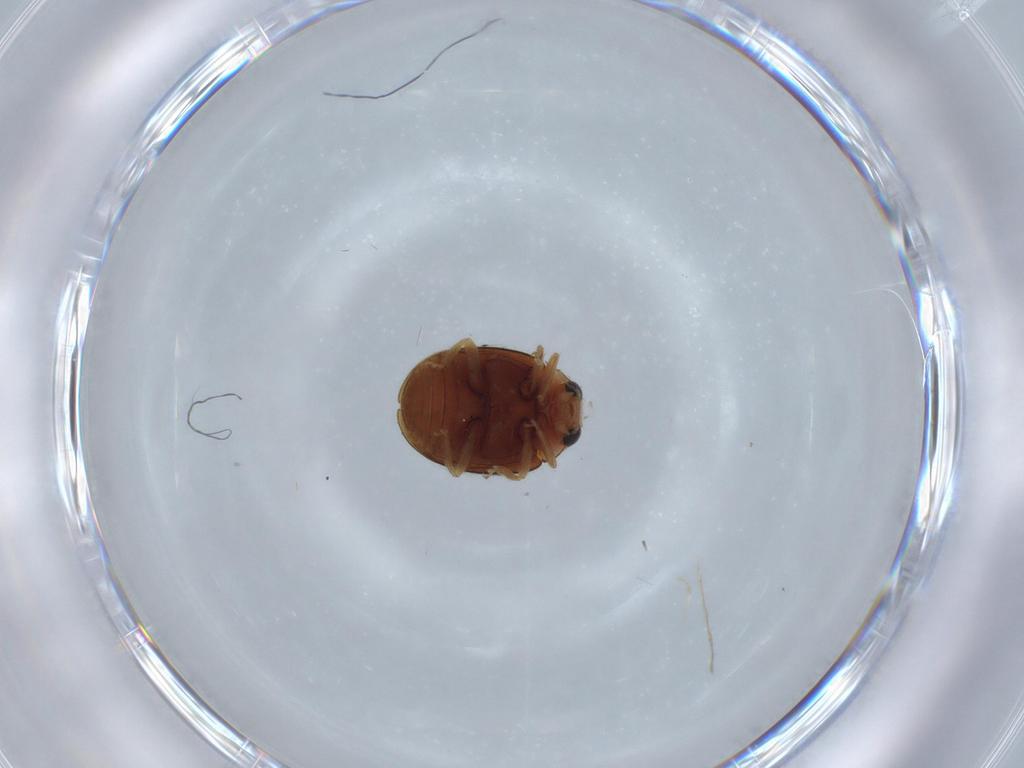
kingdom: Animalia
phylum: Arthropoda
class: Insecta
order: Coleoptera
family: Coccinellidae
